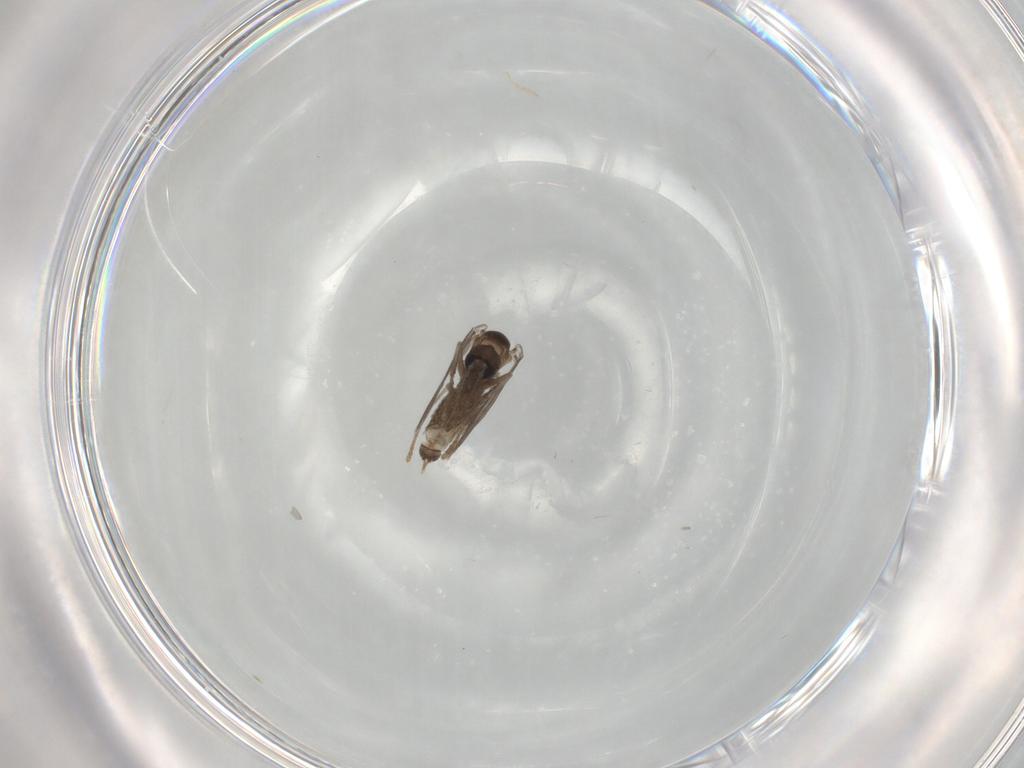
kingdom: Animalia
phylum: Arthropoda
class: Insecta
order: Diptera
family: Psychodidae
